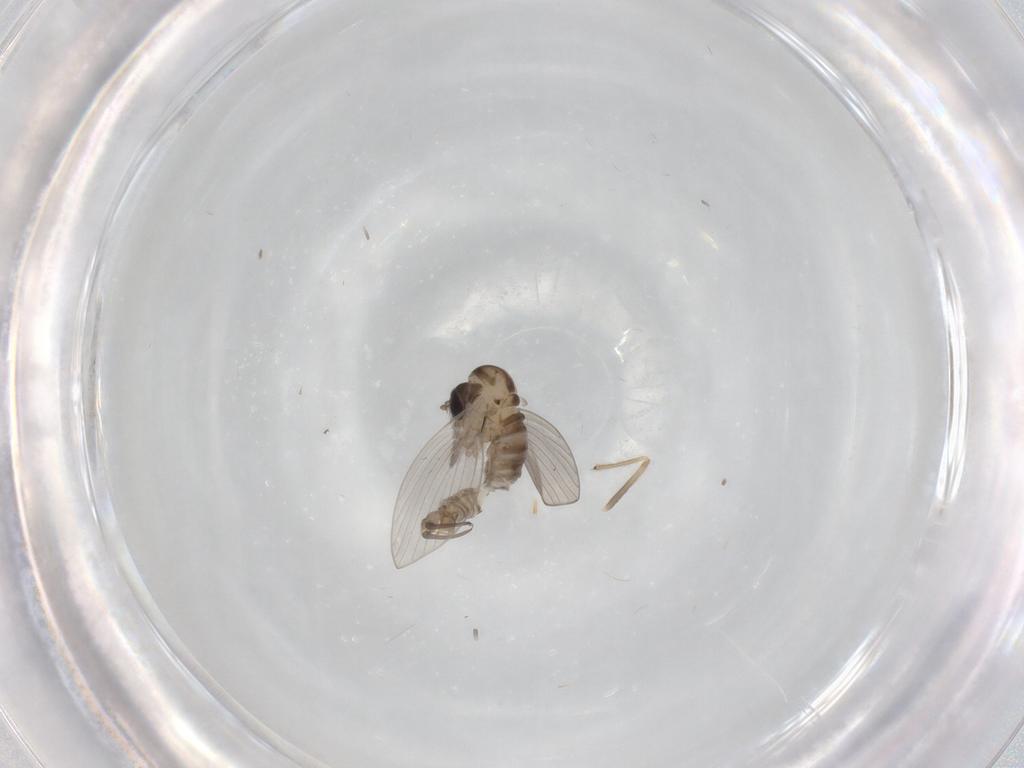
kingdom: Animalia
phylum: Arthropoda
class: Insecta
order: Diptera
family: Psychodidae
